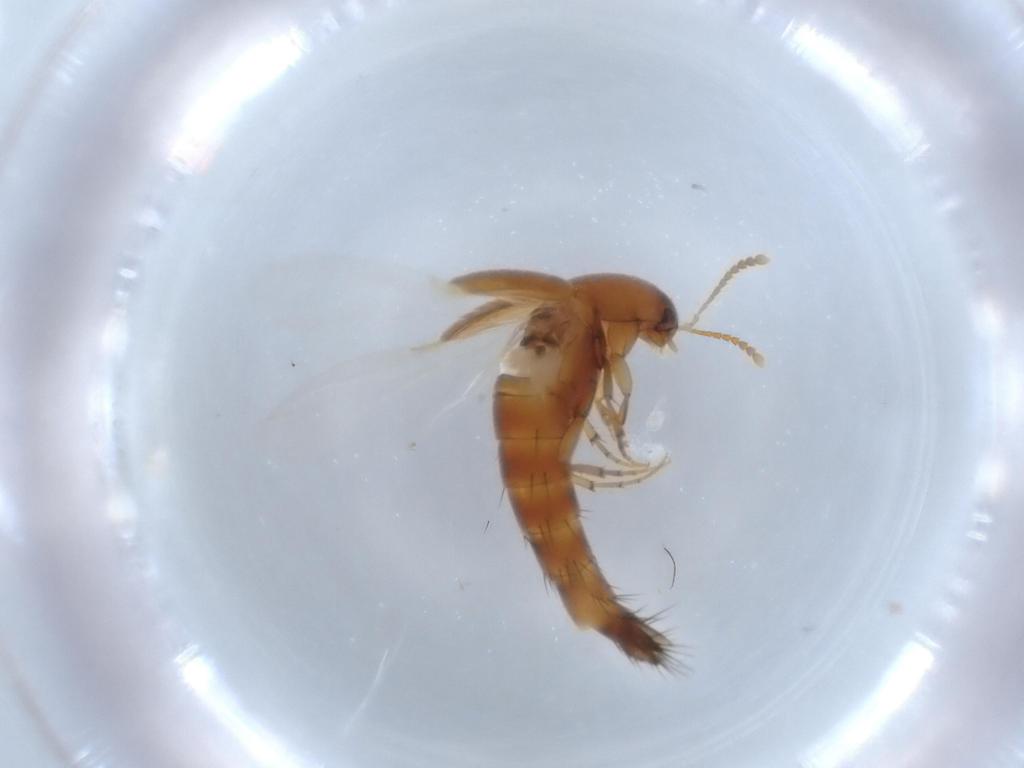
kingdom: Animalia
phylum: Arthropoda
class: Insecta
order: Coleoptera
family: Staphylinidae
